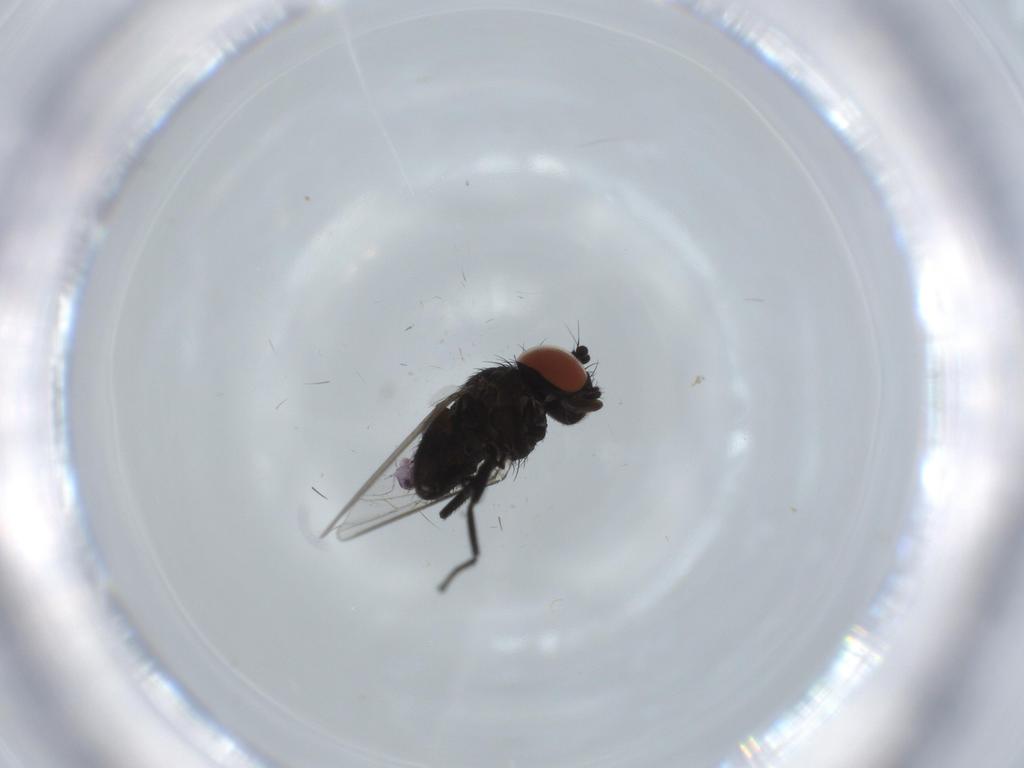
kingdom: Animalia
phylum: Arthropoda
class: Insecta
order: Diptera
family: Milichiidae
